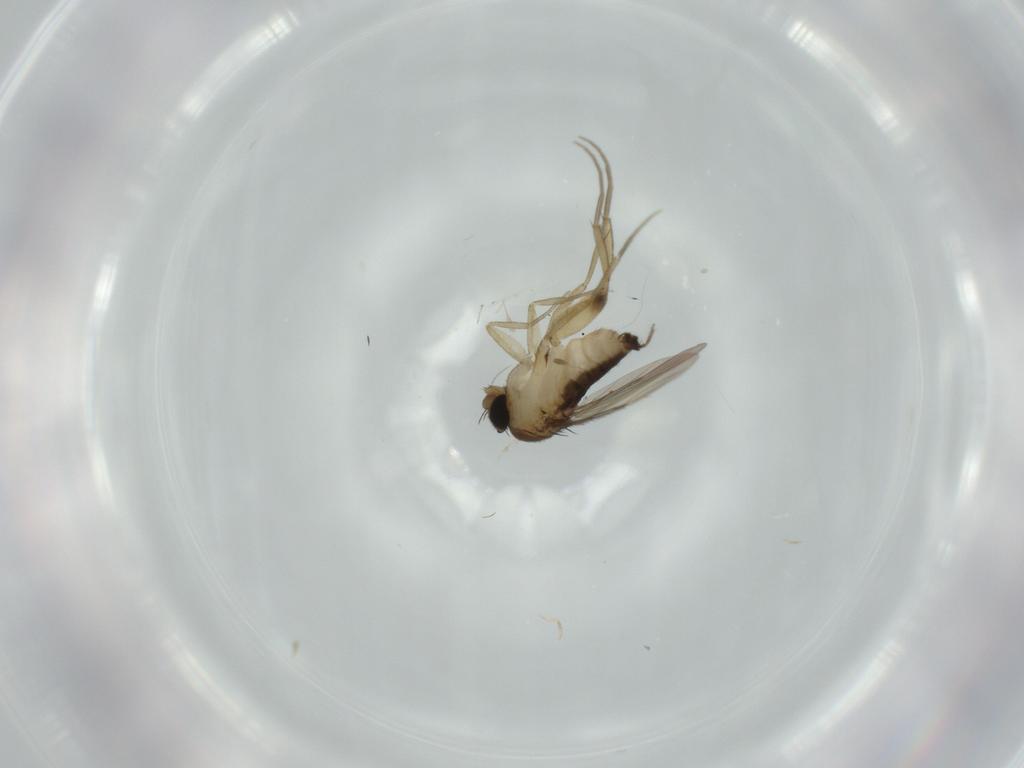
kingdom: Animalia
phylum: Arthropoda
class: Insecta
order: Diptera
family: Phoridae
